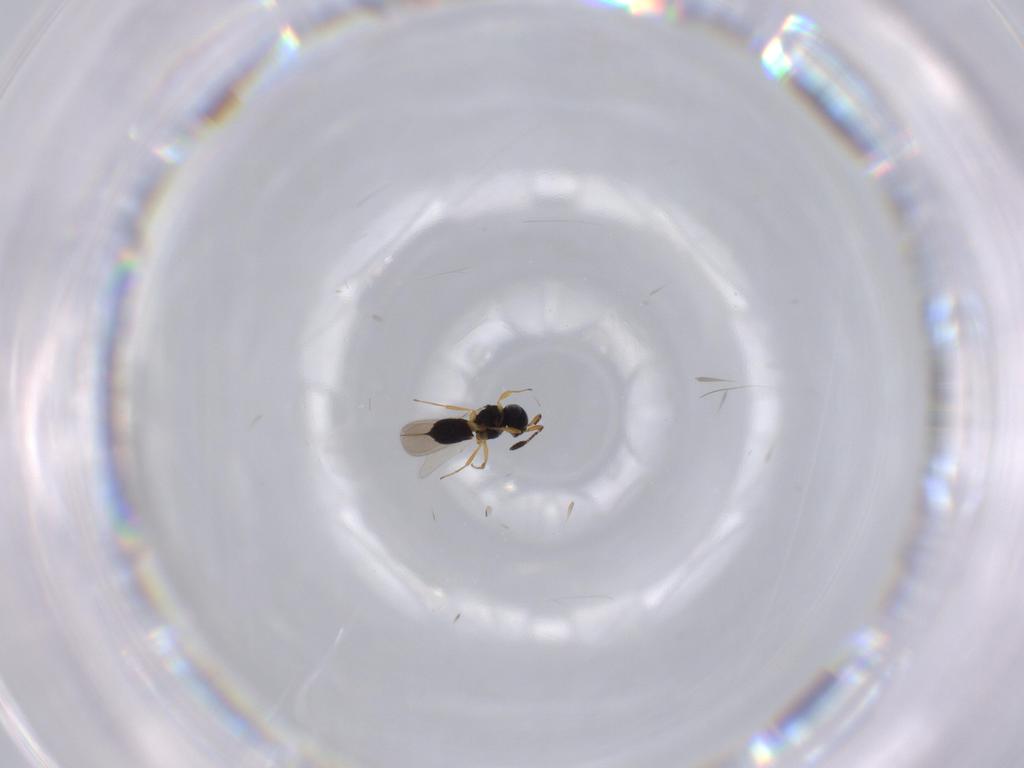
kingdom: Animalia
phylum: Arthropoda
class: Insecta
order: Hymenoptera
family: Scelionidae
